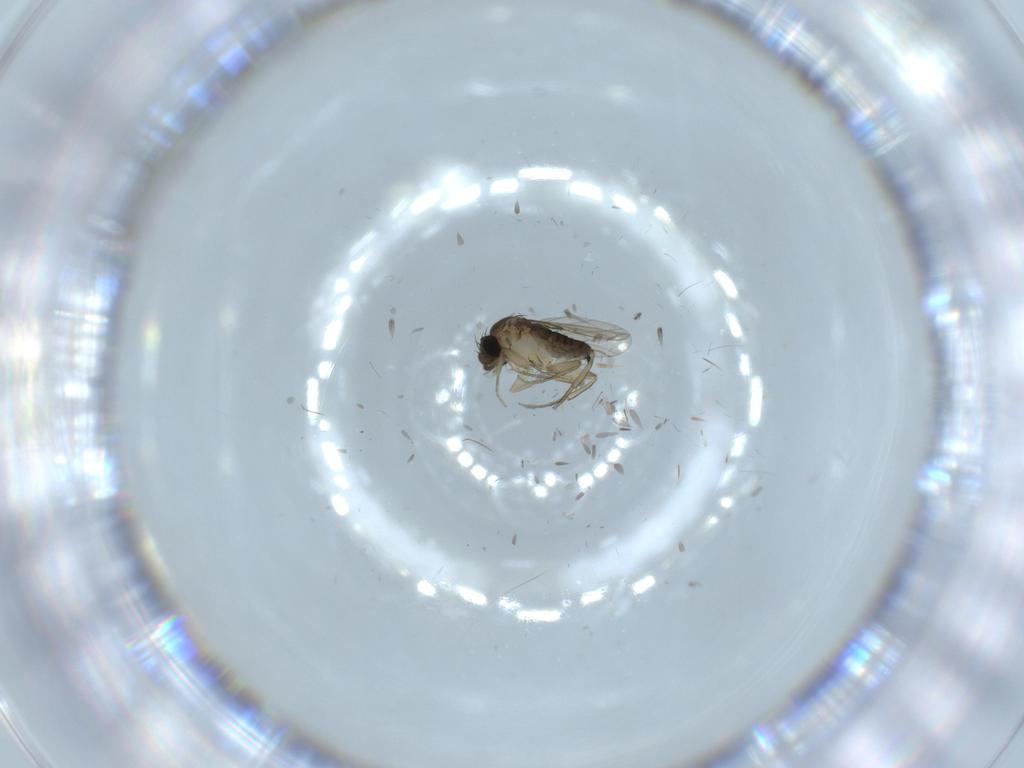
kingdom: Animalia
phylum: Arthropoda
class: Insecta
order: Diptera
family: Phoridae
